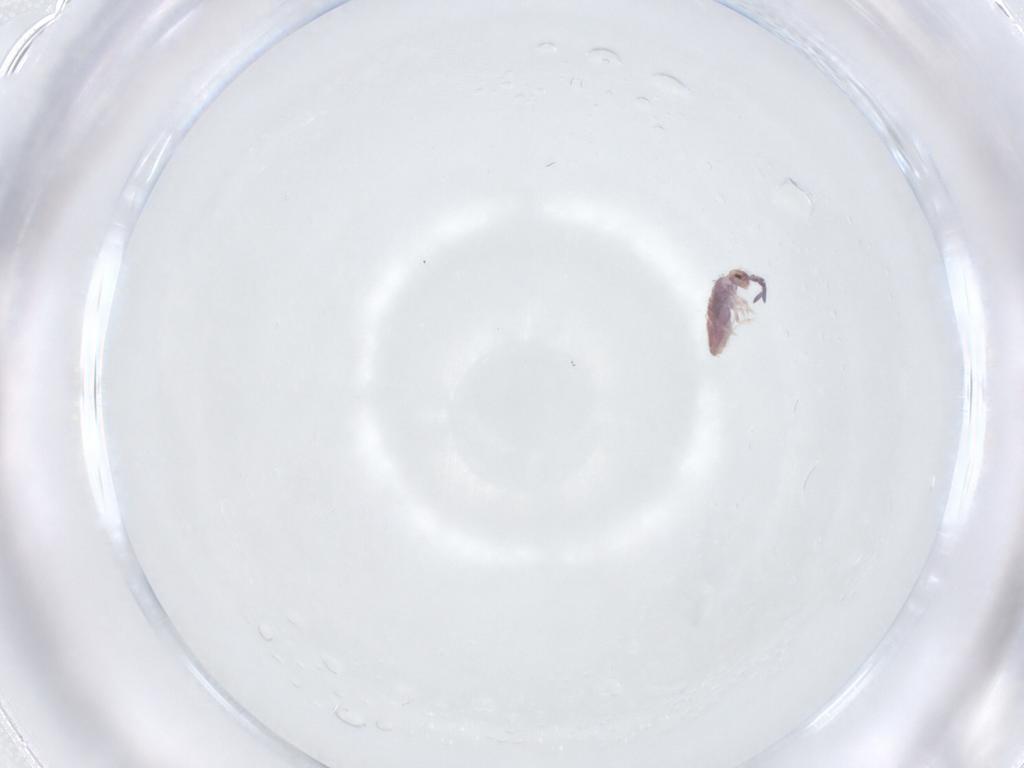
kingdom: Animalia
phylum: Arthropoda
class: Collembola
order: Entomobryomorpha
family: Entomobryidae
